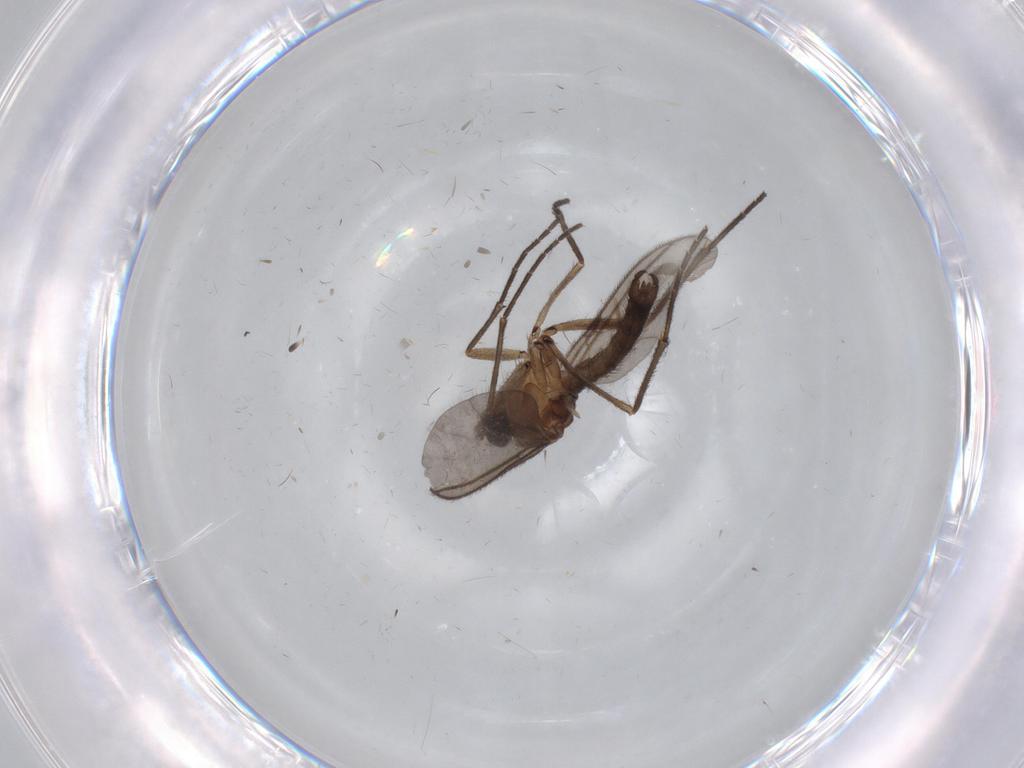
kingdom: Animalia
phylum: Arthropoda
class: Insecta
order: Diptera
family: Chironomidae
